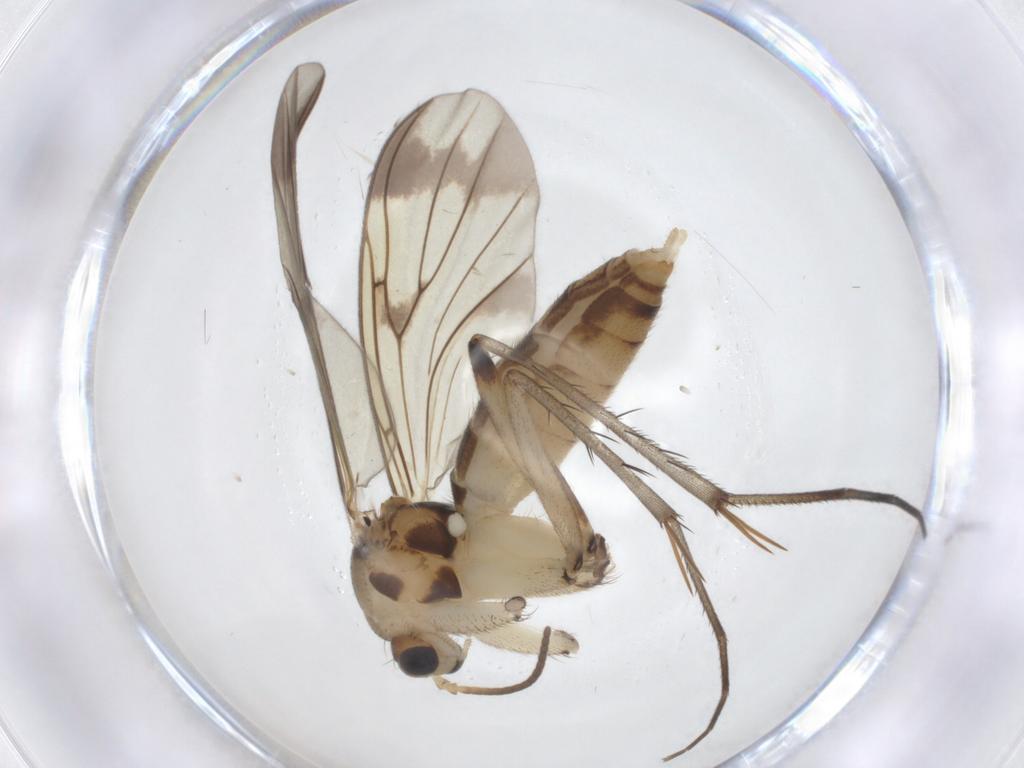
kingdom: Animalia
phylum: Arthropoda
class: Insecta
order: Diptera
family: Mycetophilidae
